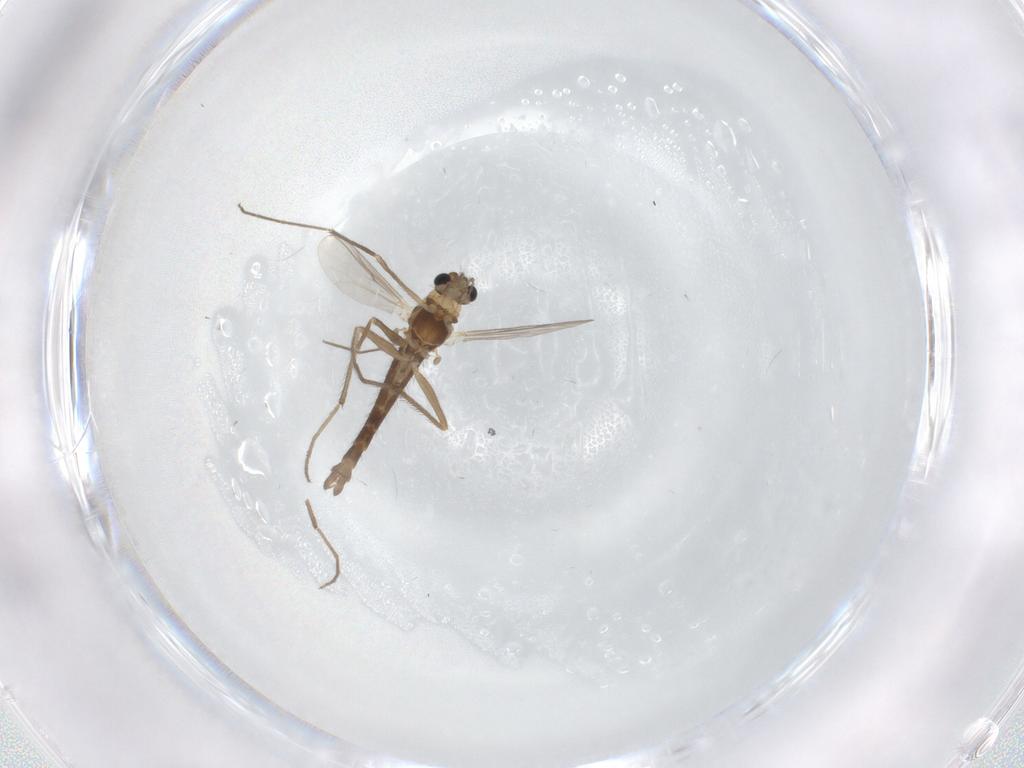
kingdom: Animalia
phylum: Arthropoda
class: Insecta
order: Diptera
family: Chironomidae
